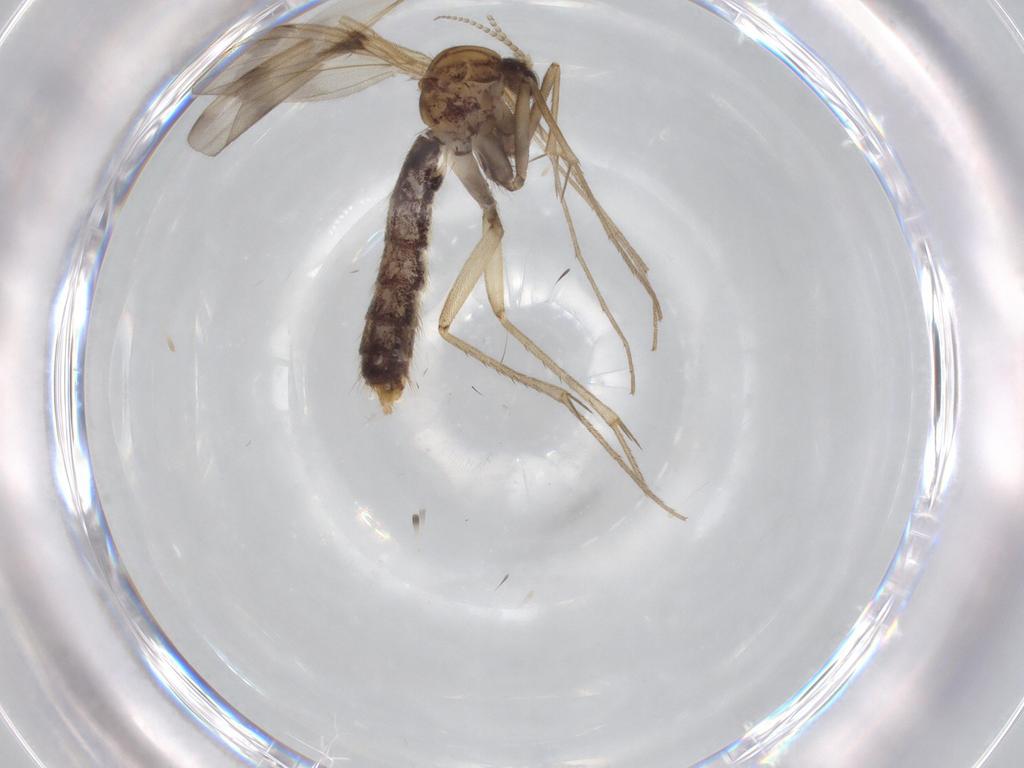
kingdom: Animalia
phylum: Arthropoda
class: Insecta
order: Diptera
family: Mycetophilidae
